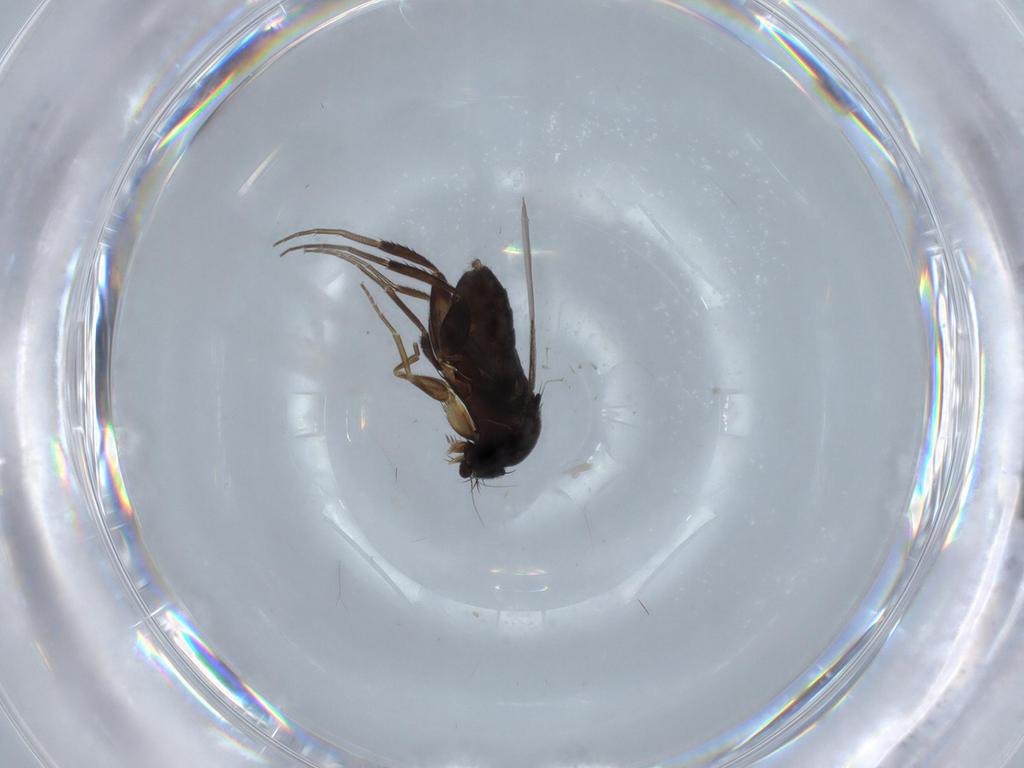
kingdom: Animalia
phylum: Arthropoda
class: Insecta
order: Diptera
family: Phoridae
